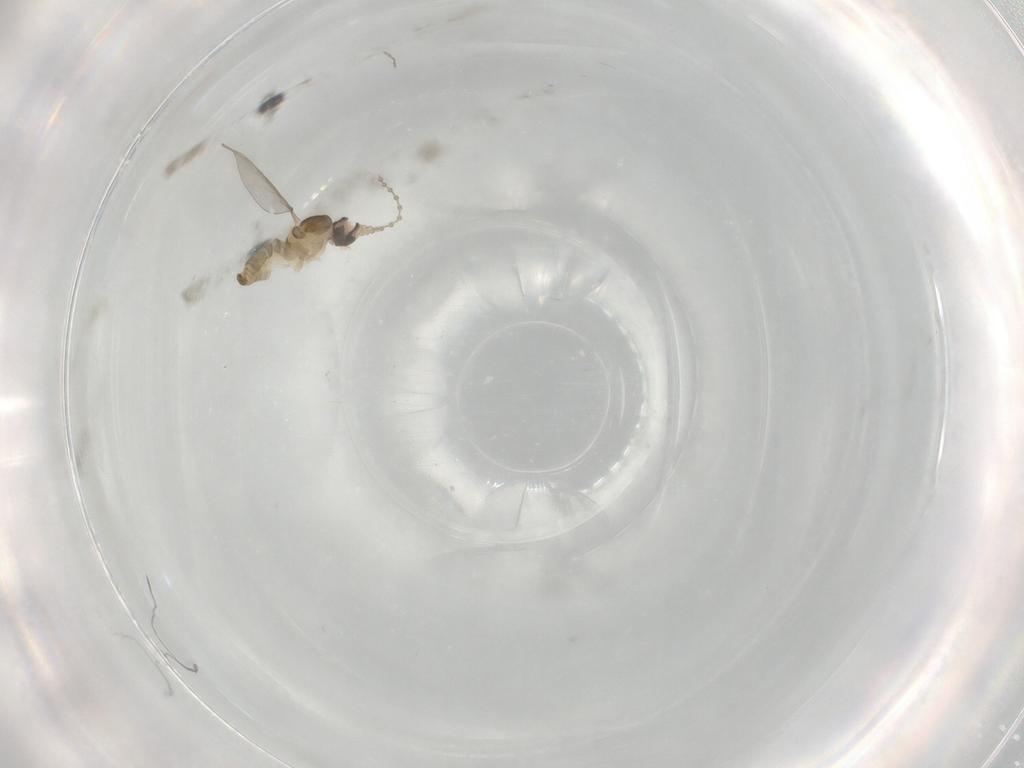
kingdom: Animalia
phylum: Arthropoda
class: Insecta
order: Diptera
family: Cecidomyiidae
